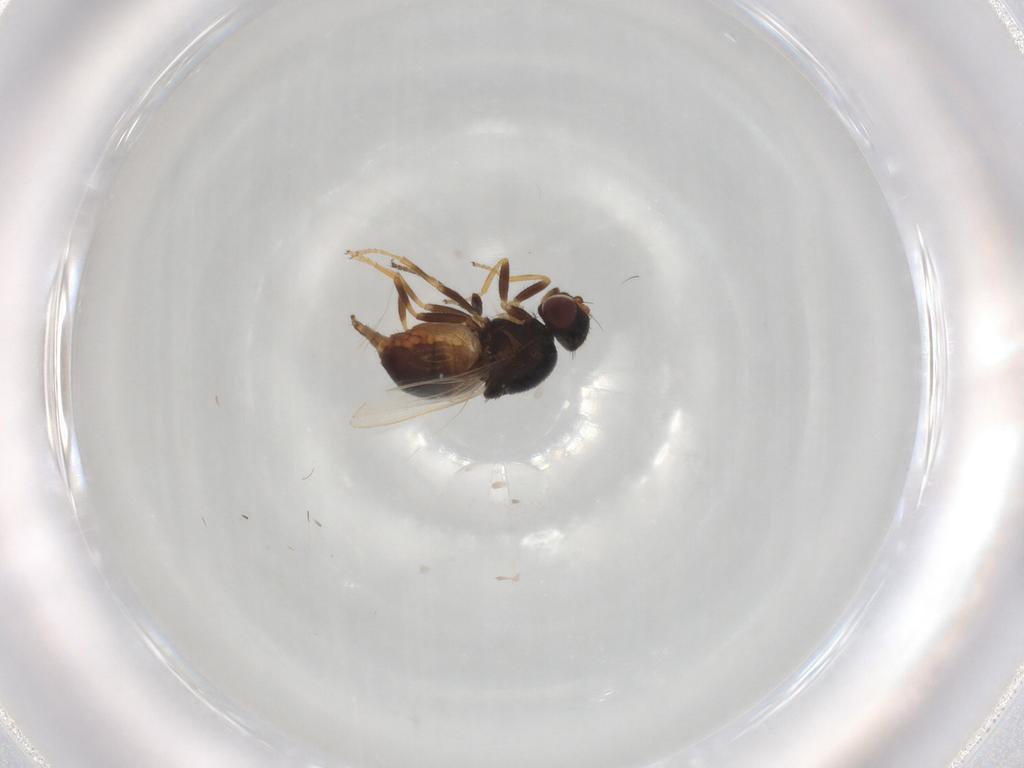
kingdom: Animalia
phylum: Arthropoda
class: Insecta
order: Diptera
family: Chloropidae
